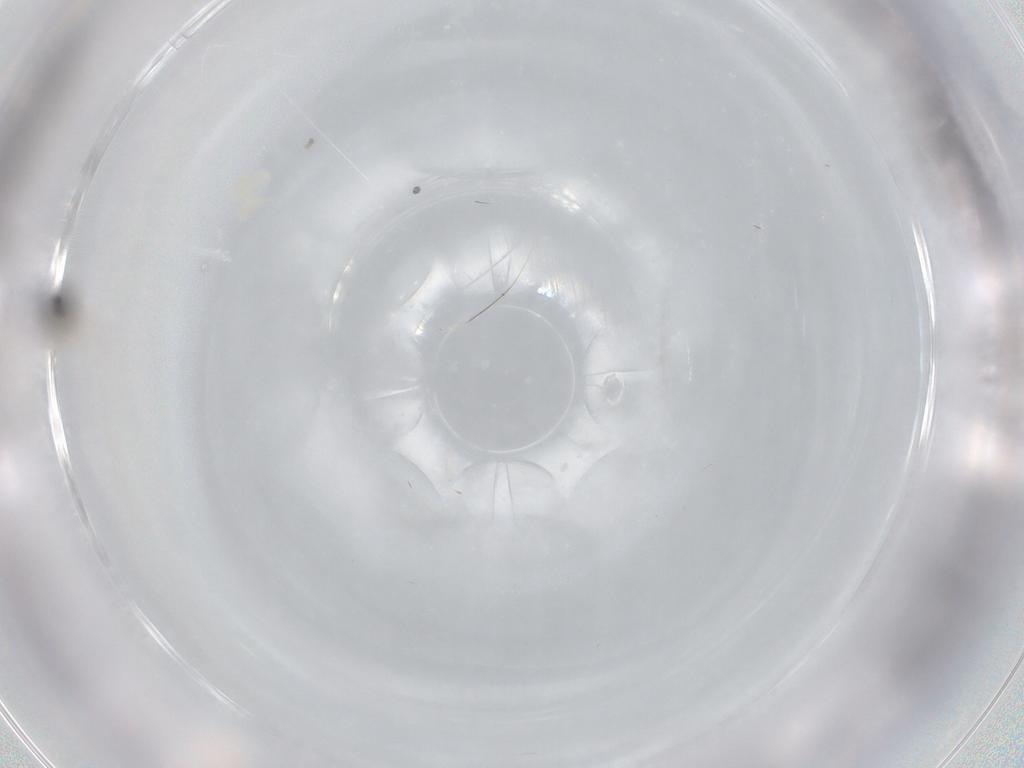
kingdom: Animalia
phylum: Arthropoda
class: Insecta
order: Hymenoptera
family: Scelionidae
